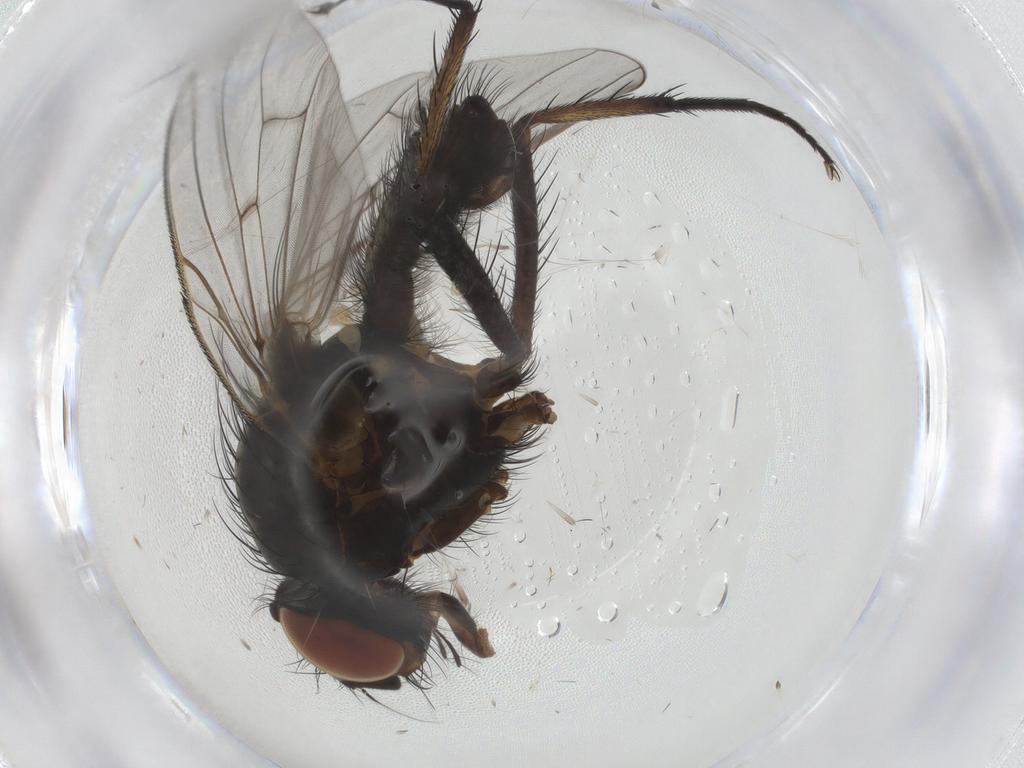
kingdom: Animalia
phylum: Arthropoda
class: Insecta
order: Diptera
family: Anthomyiidae
